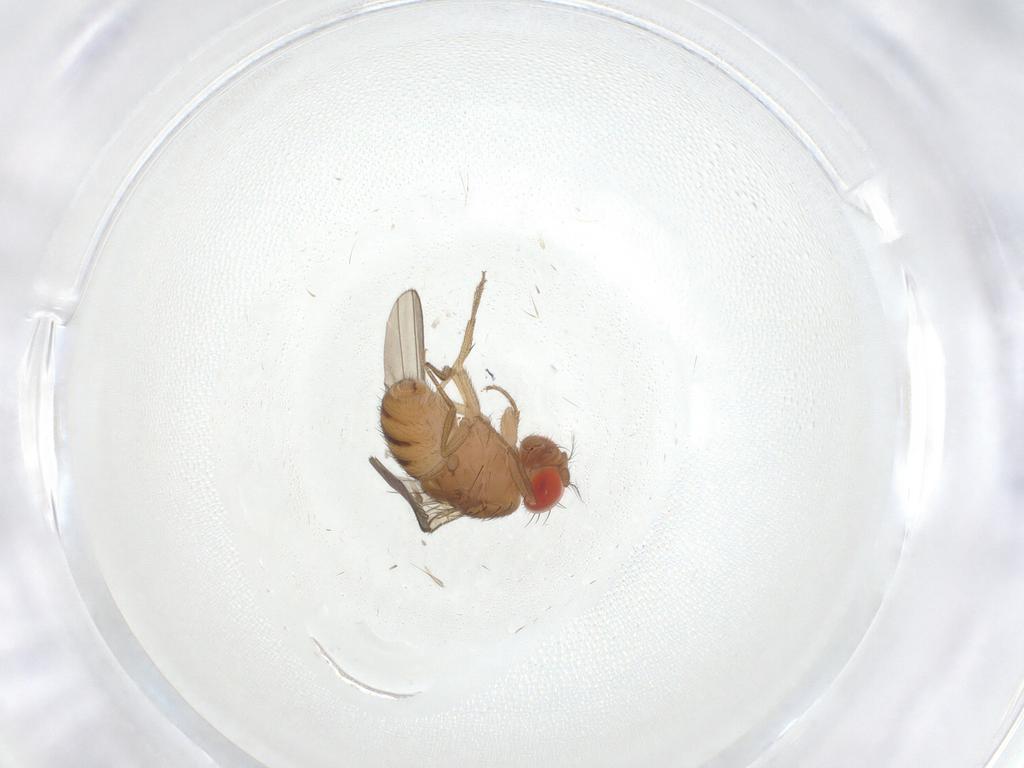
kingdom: Animalia
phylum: Arthropoda
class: Insecta
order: Diptera
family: Drosophilidae
